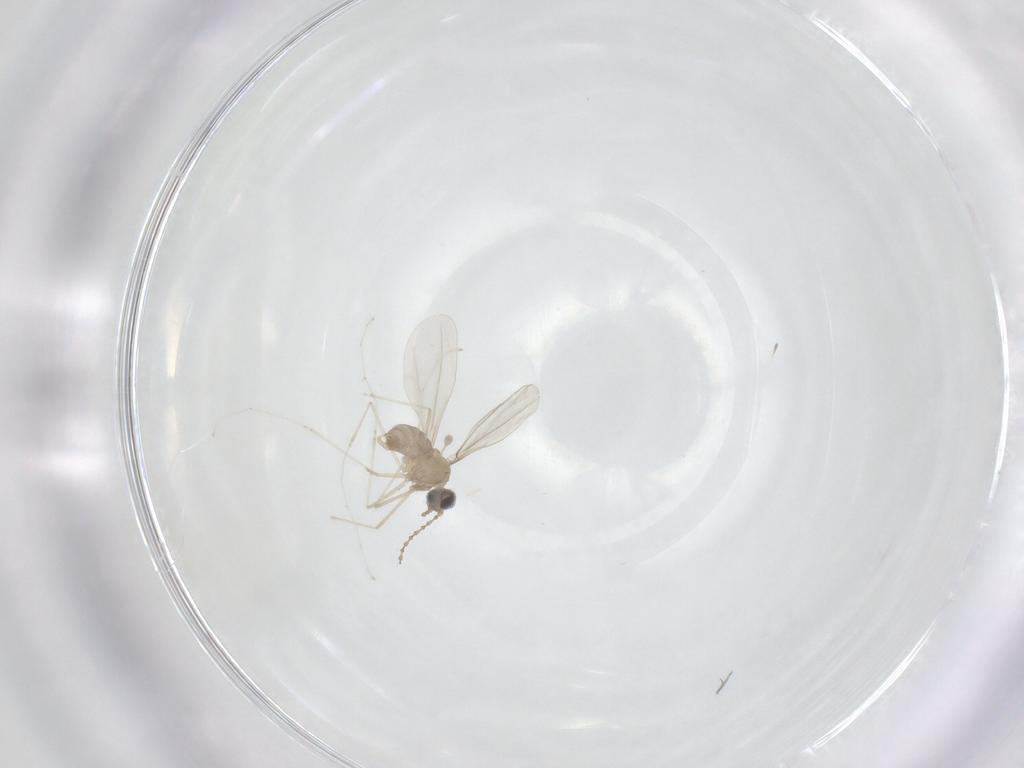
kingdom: Animalia
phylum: Arthropoda
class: Insecta
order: Diptera
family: Cecidomyiidae
